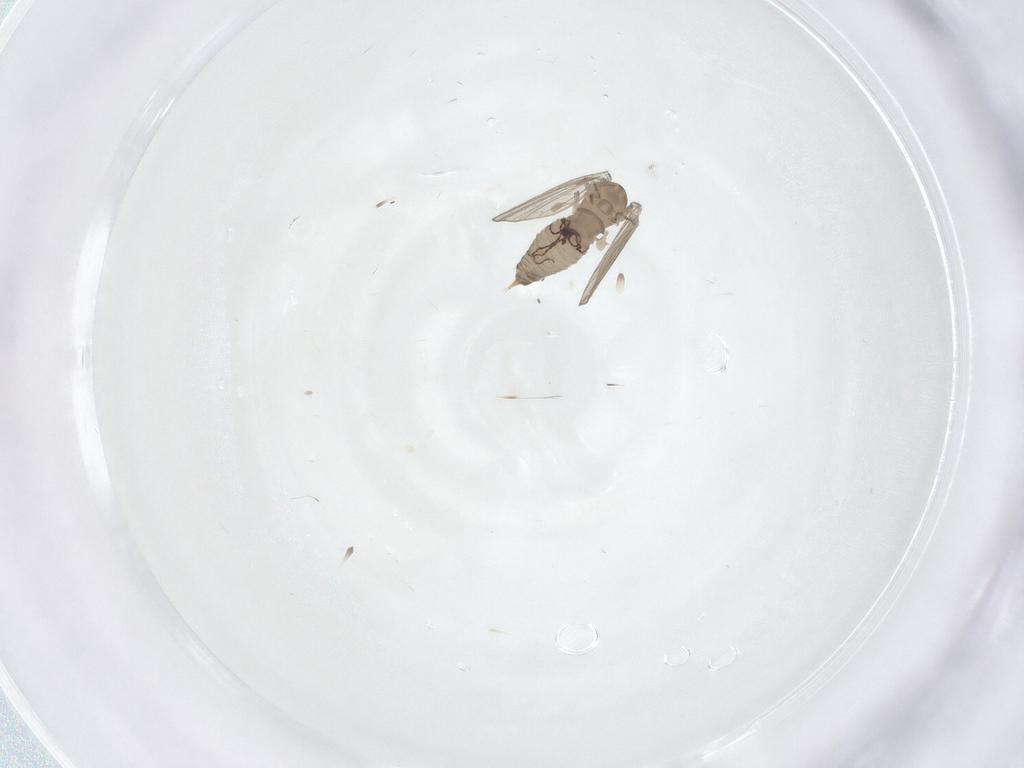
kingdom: Animalia
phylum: Arthropoda
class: Insecta
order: Diptera
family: Psychodidae
